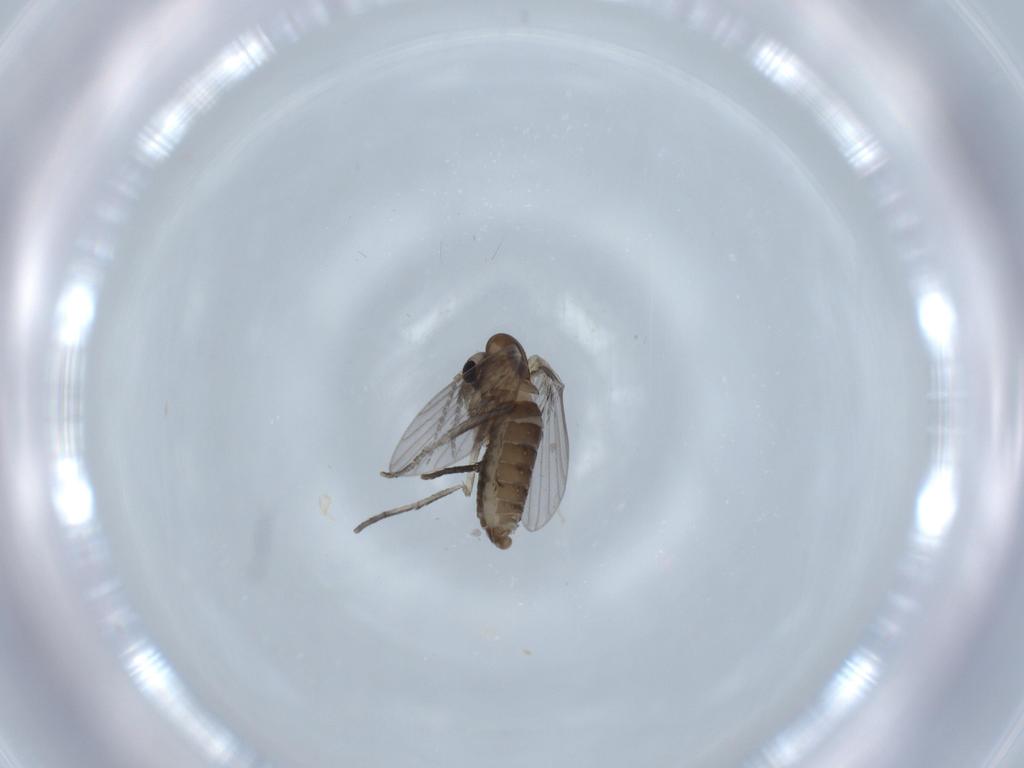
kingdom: Animalia
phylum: Arthropoda
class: Insecta
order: Diptera
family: Psychodidae
